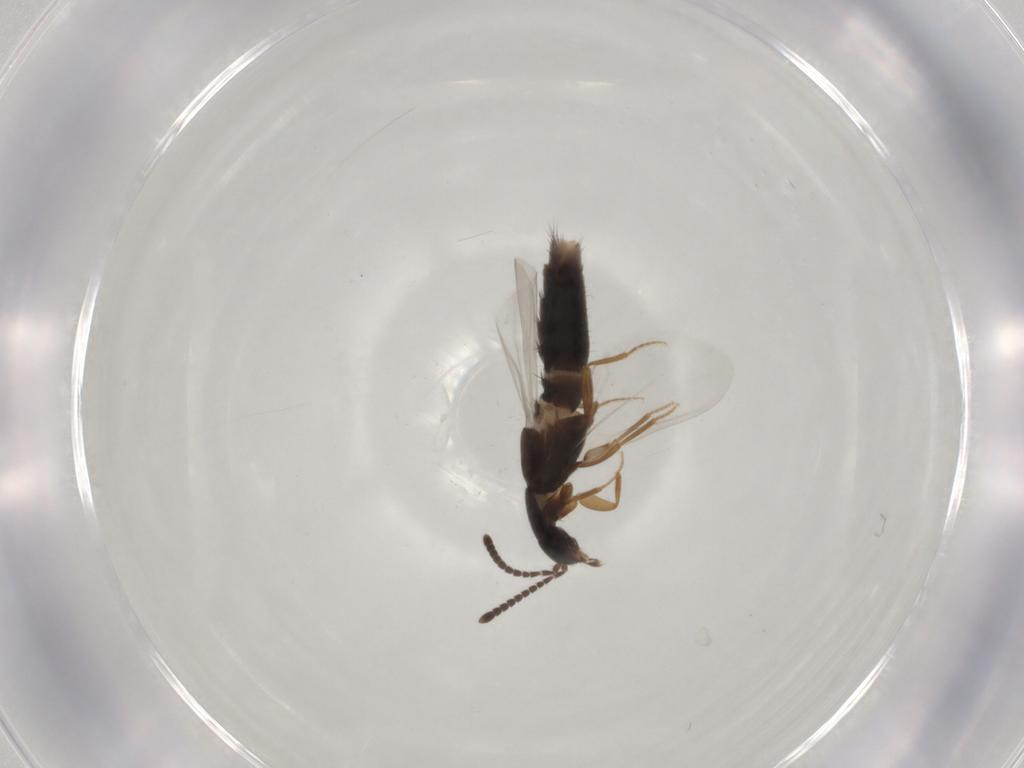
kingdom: Animalia
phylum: Arthropoda
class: Insecta
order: Coleoptera
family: Staphylinidae
